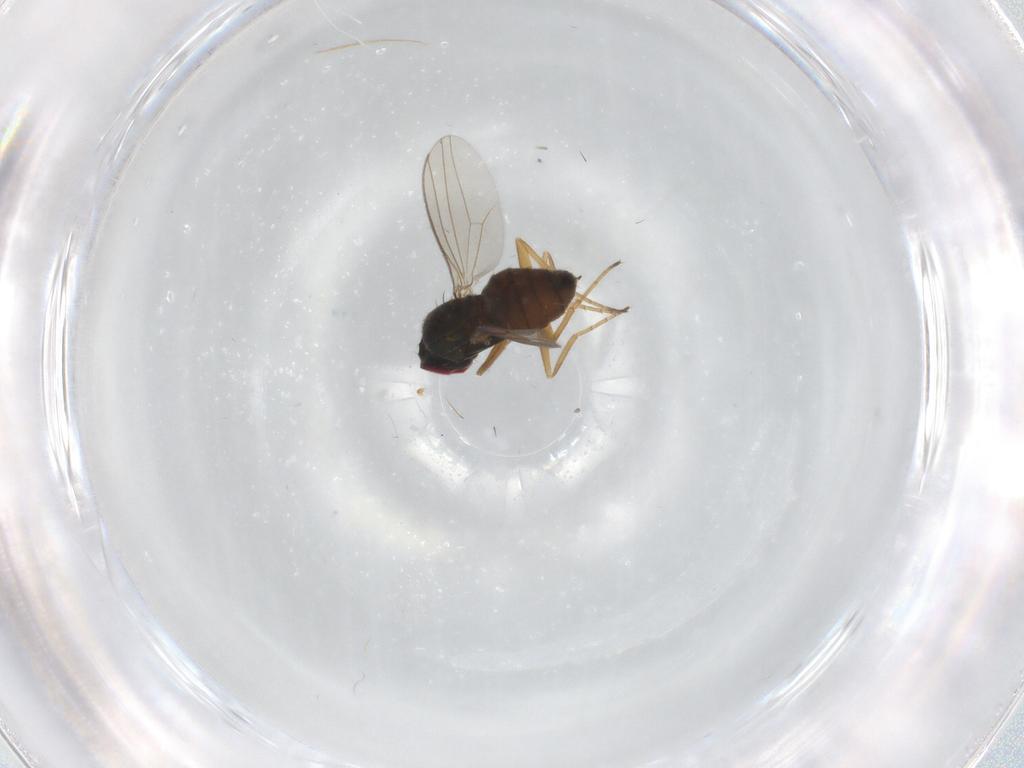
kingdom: Animalia
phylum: Arthropoda
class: Insecta
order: Diptera
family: Dolichopodidae
